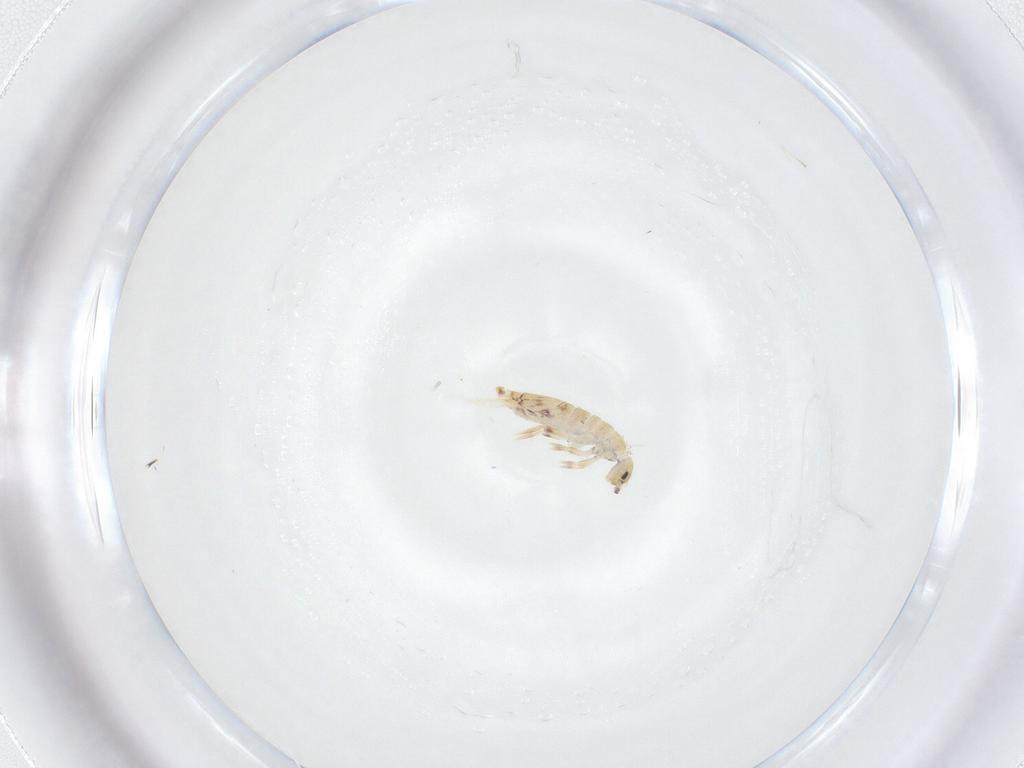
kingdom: Animalia
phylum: Arthropoda
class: Collembola
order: Entomobryomorpha
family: Entomobryidae
